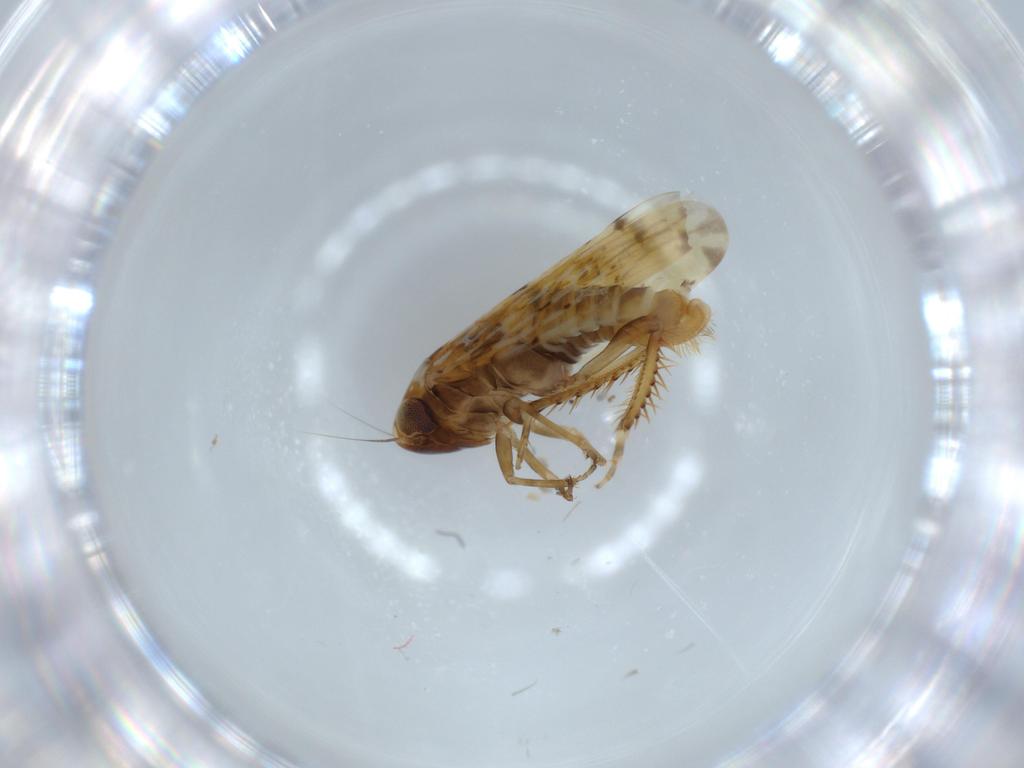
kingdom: Animalia
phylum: Arthropoda
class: Insecta
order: Hemiptera
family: Cicadellidae
